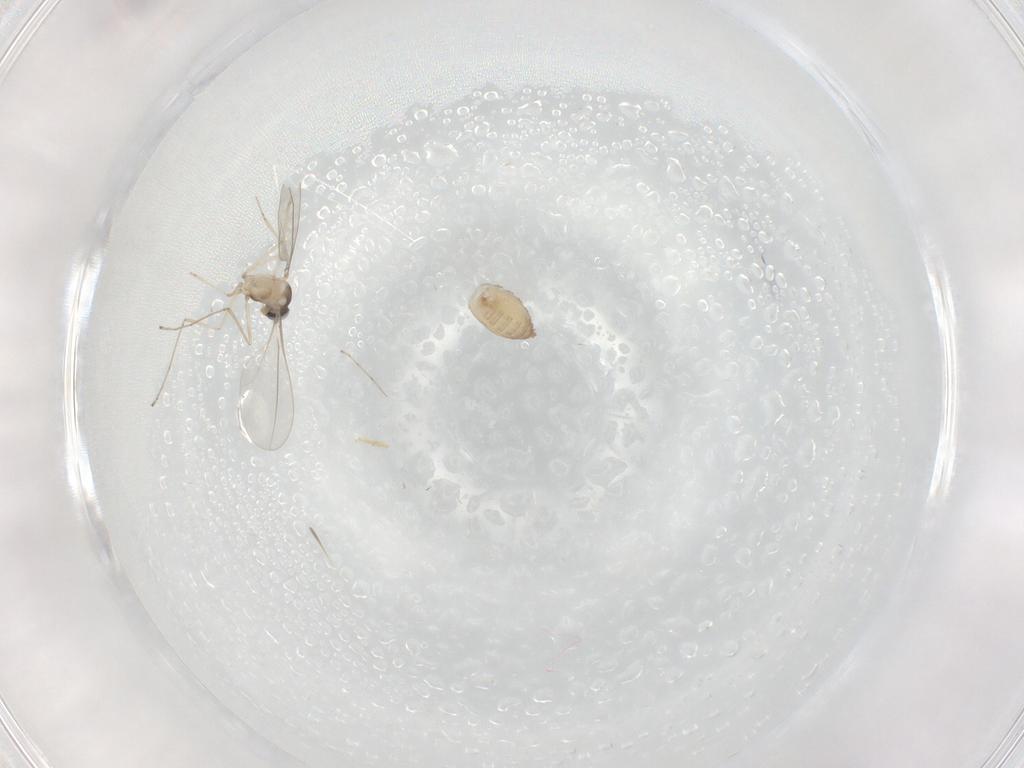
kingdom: Animalia
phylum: Arthropoda
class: Insecta
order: Diptera
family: Cecidomyiidae
